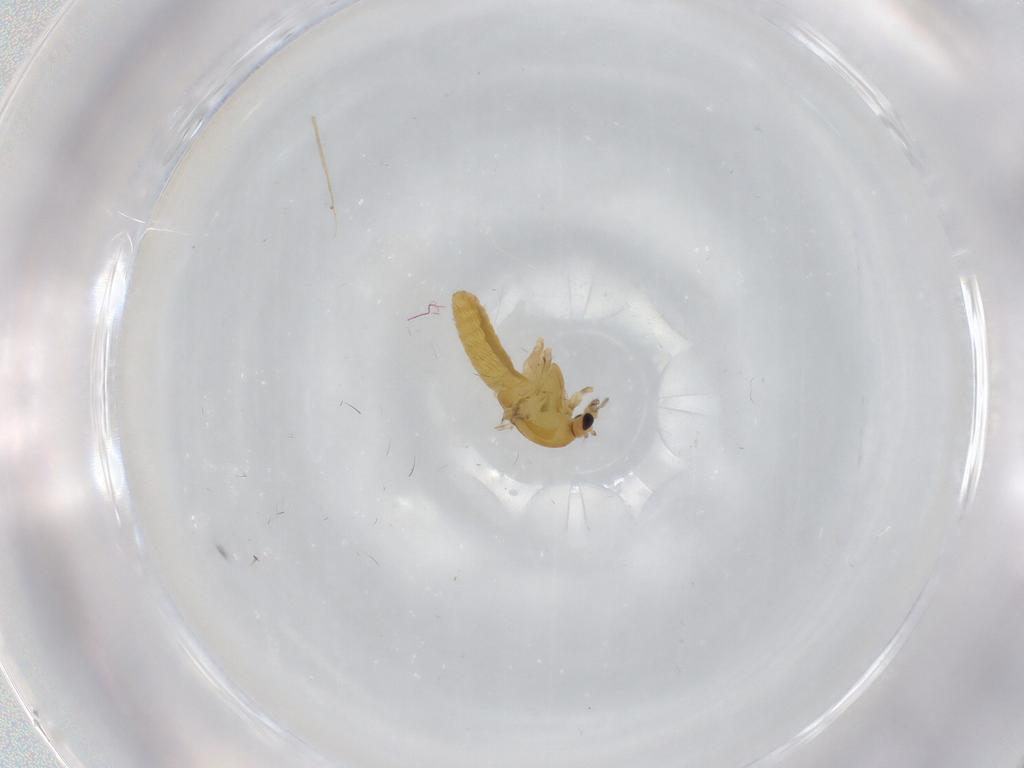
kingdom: Animalia
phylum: Arthropoda
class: Insecta
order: Diptera
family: Chironomidae
